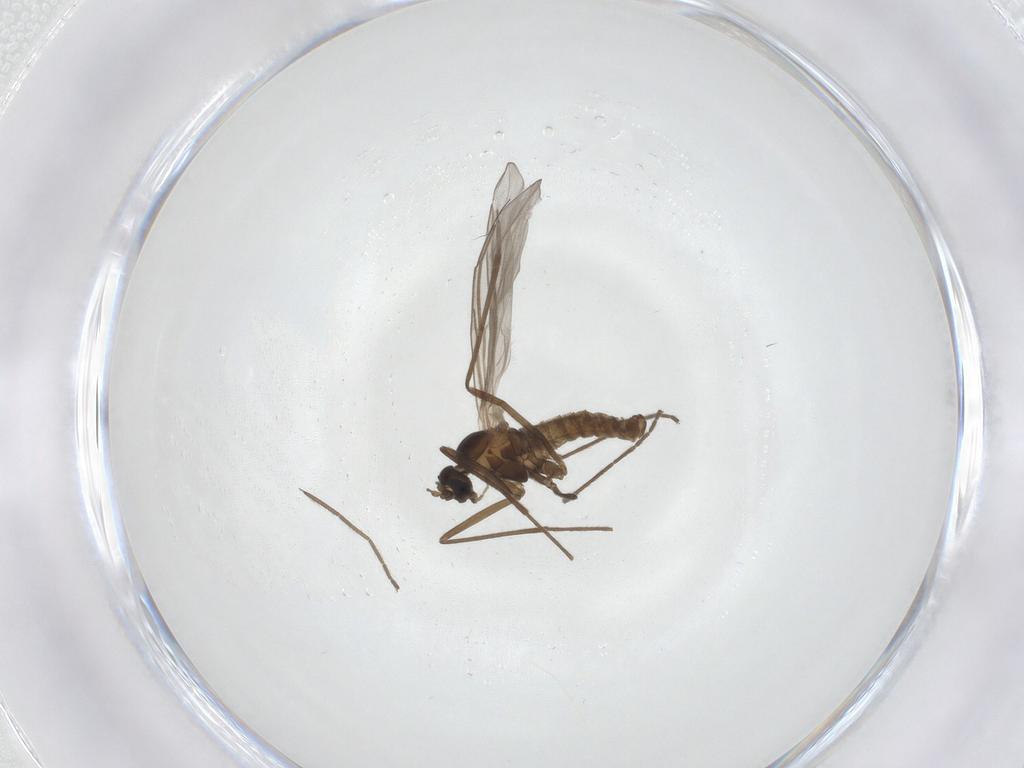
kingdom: Animalia
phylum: Arthropoda
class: Insecta
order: Diptera
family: Cecidomyiidae
